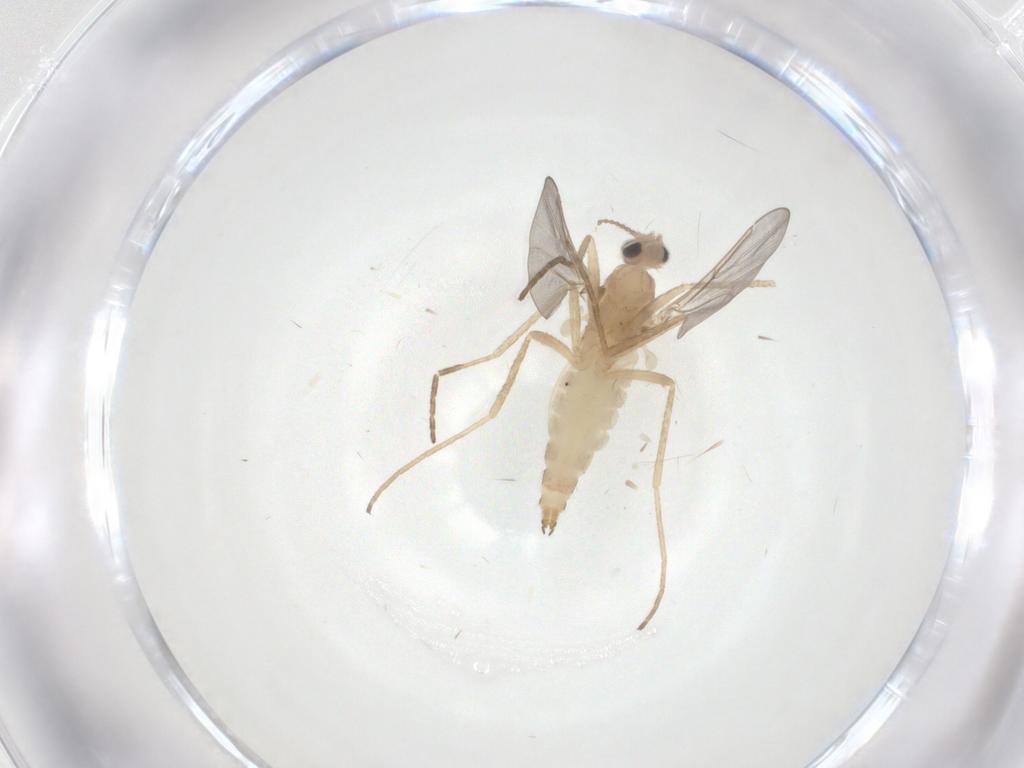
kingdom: Animalia
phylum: Arthropoda
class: Insecta
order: Diptera
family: Cecidomyiidae
